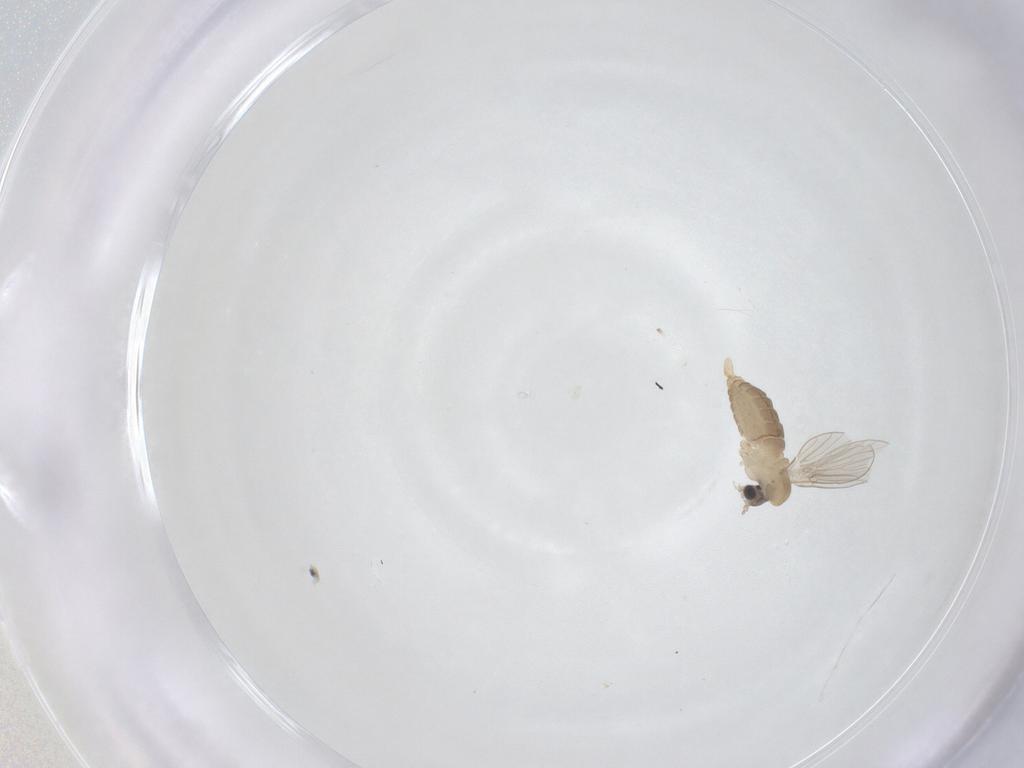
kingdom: Animalia
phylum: Arthropoda
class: Insecta
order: Diptera
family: Psychodidae
